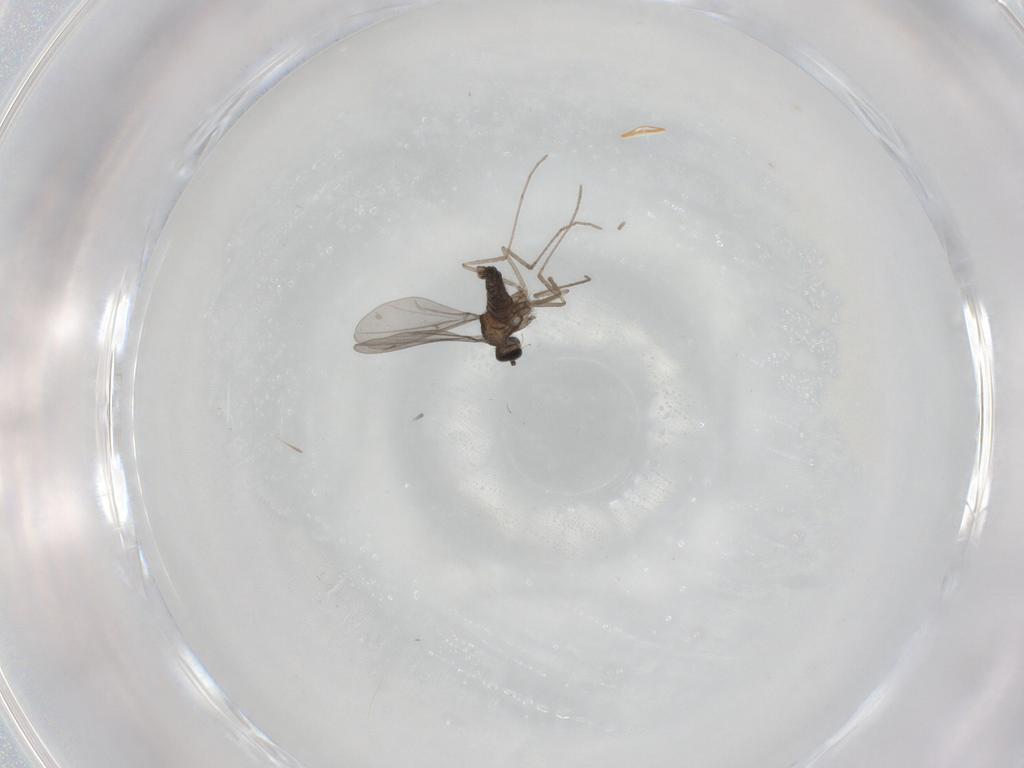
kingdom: Animalia
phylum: Arthropoda
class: Insecta
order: Diptera
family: Cecidomyiidae
